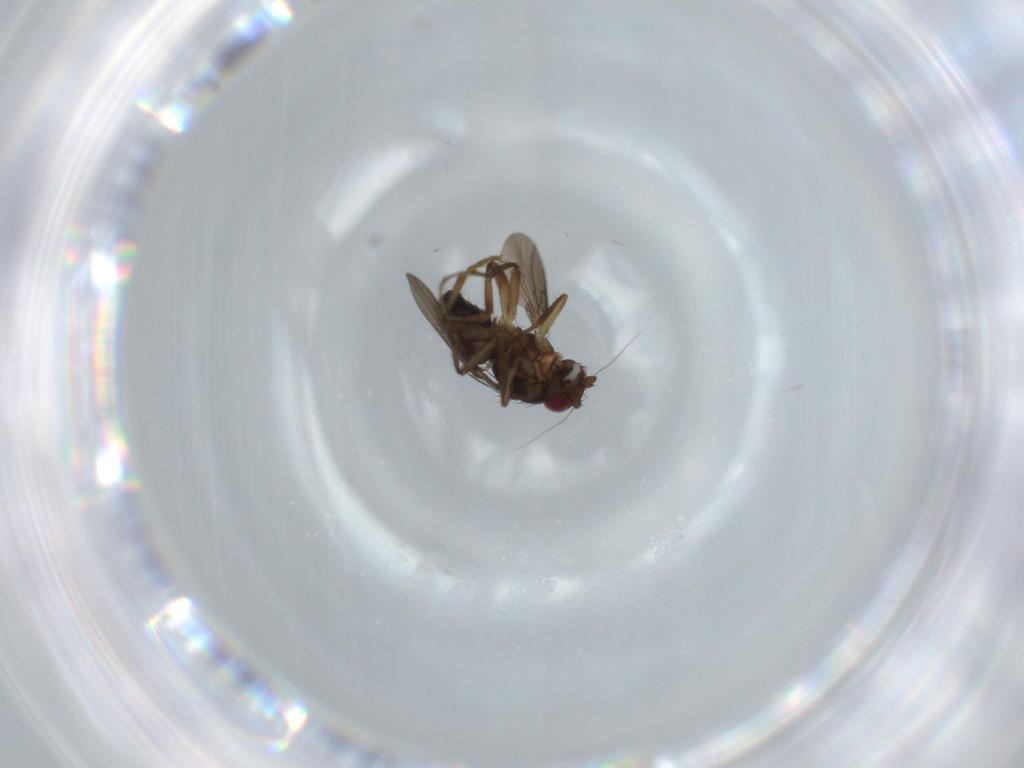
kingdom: Animalia
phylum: Arthropoda
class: Insecta
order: Diptera
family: Sphaeroceridae
